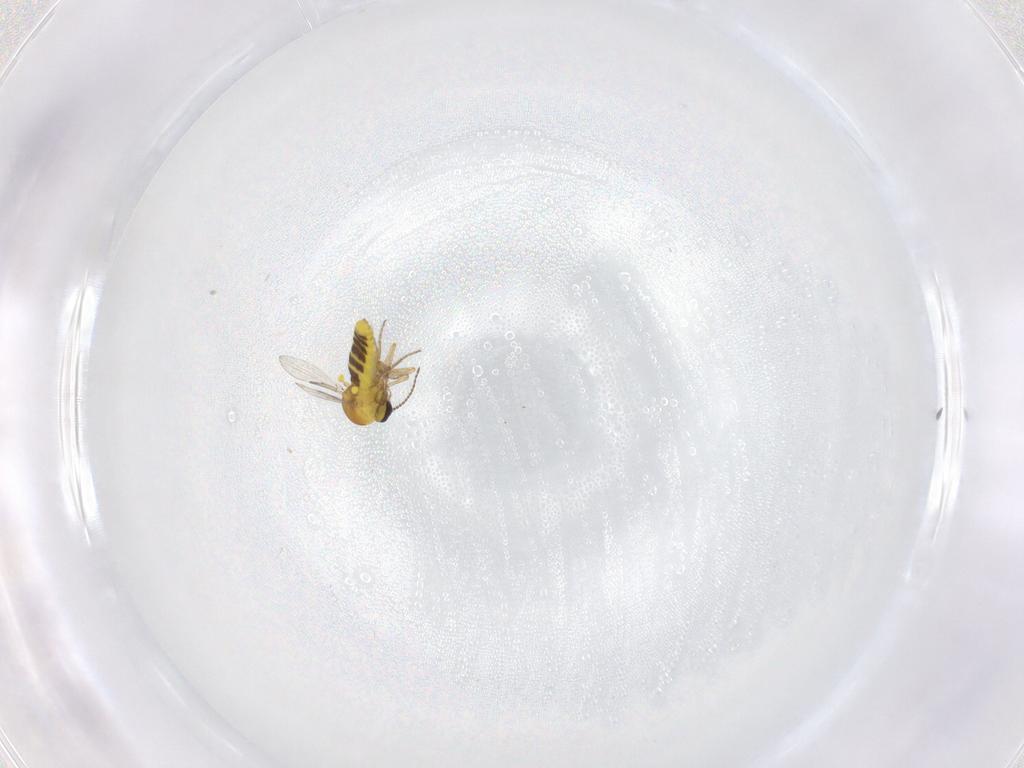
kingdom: Animalia
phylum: Arthropoda
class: Insecta
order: Diptera
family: Ceratopogonidae
